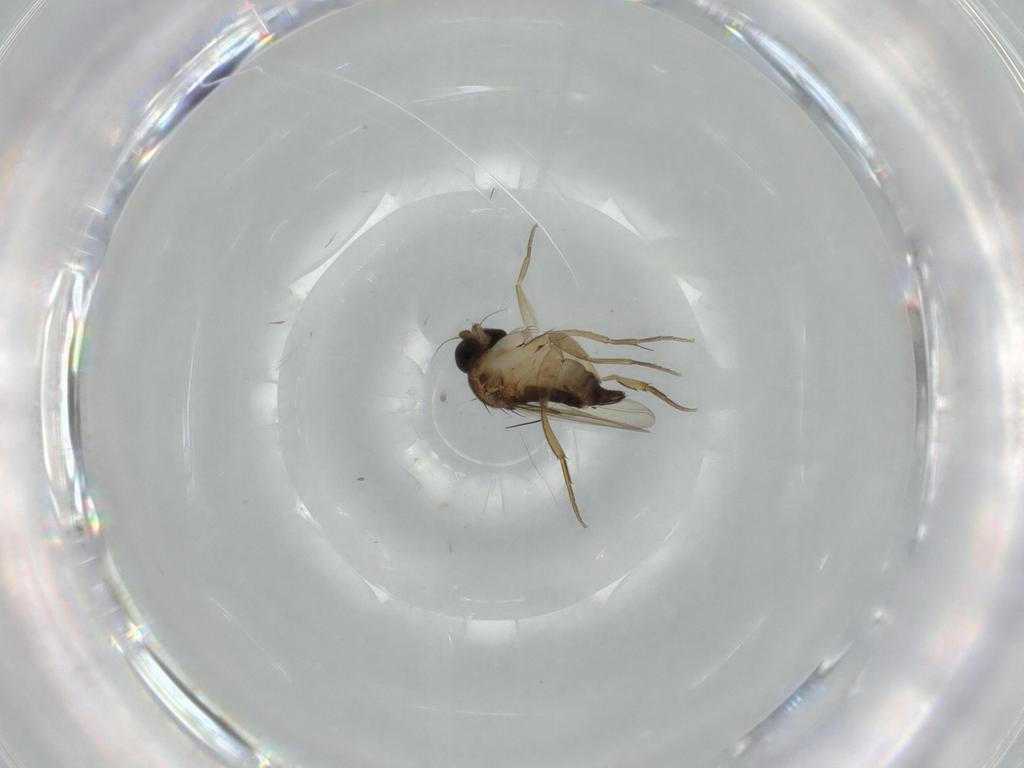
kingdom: Animalia
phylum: Arthropoda
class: Insecta
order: Diptera
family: Phoridae
